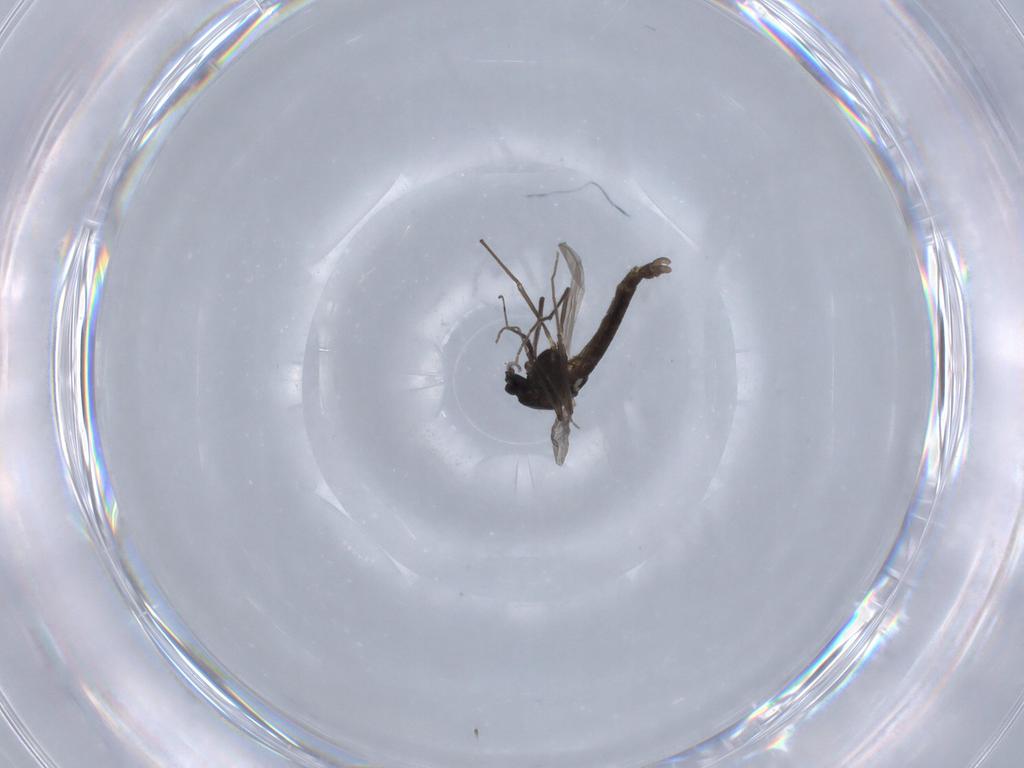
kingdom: Animalia
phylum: Arthropoda
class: Insecta
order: Diptera
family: Chironomidae
